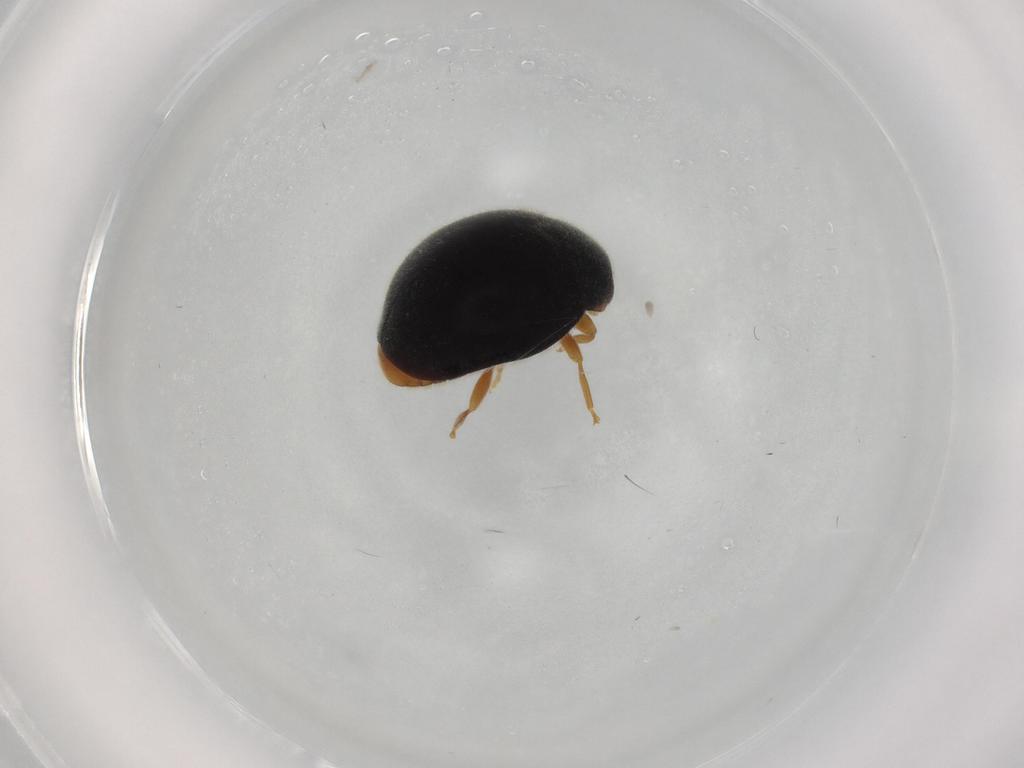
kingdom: Animalia
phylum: Arthropoda
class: Insecta
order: Coleoptera
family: Coccinellidae
